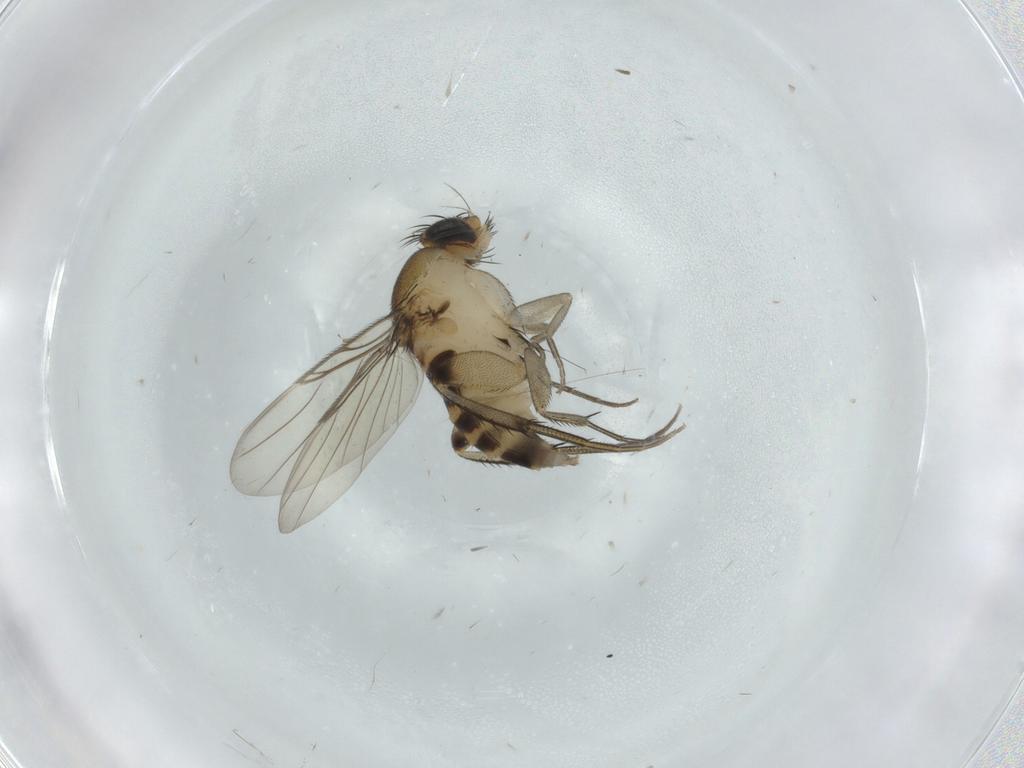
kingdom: Animalia
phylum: Arthropoda
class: Insecta
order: Diptera
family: Phoridae
